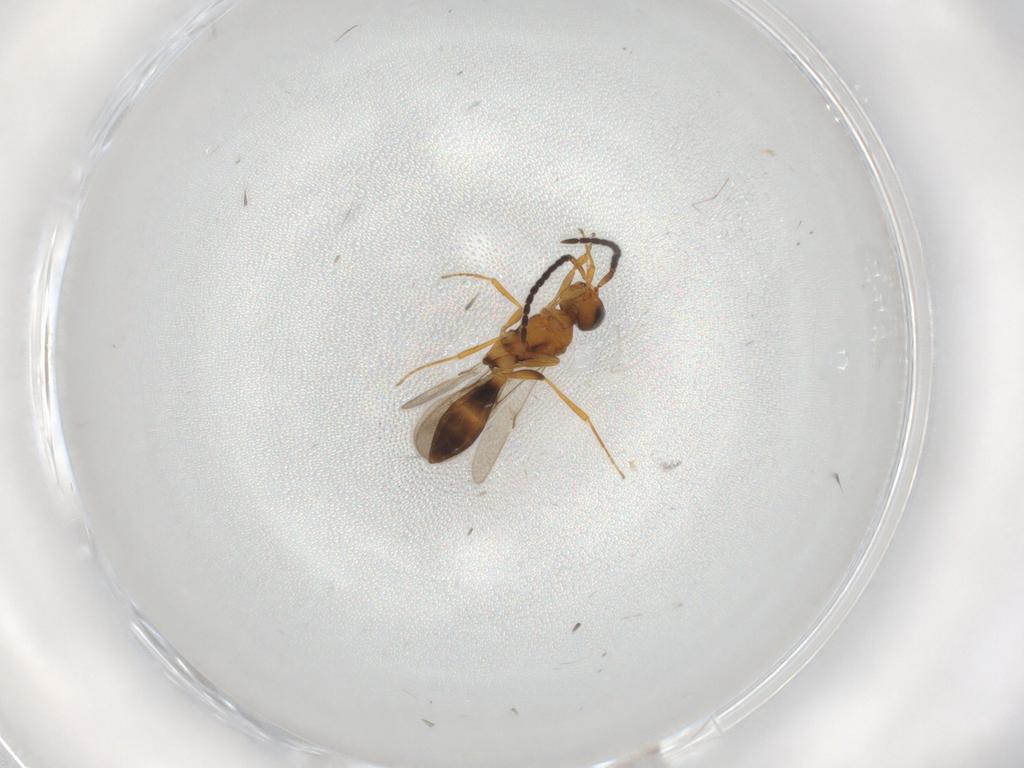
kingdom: Animalia
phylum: Arthropoda
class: Insecta
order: Hymenoptera
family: Scelionidae
